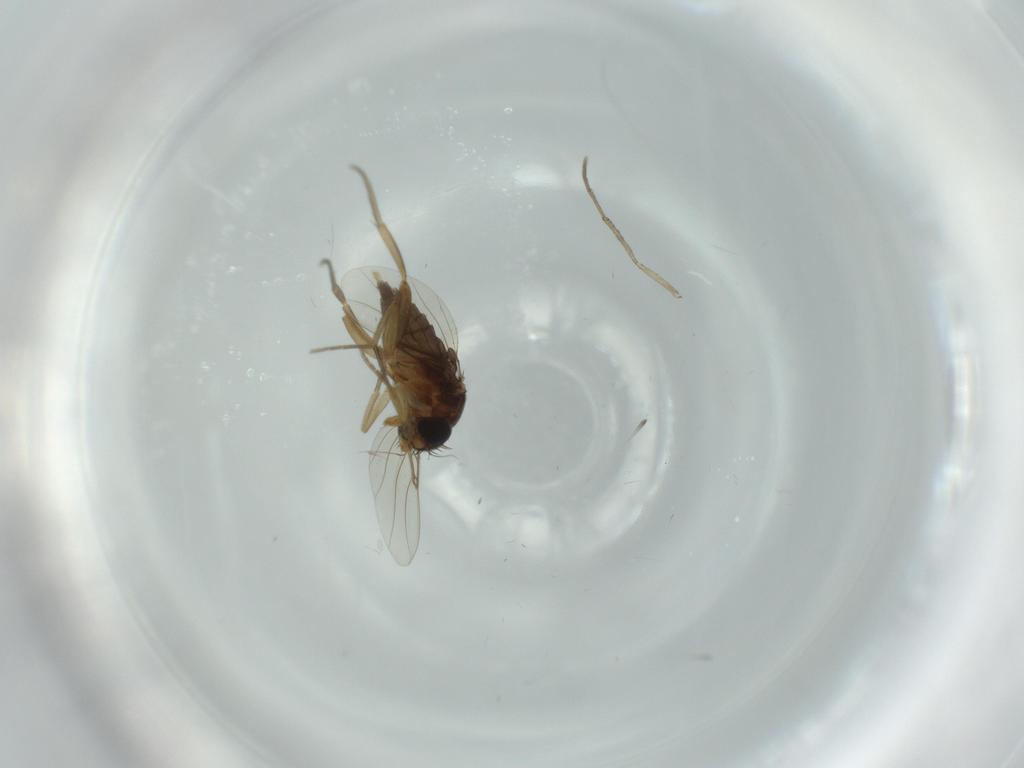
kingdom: Animalia
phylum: Arthropoda
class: Insecta
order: Diptera
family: Phoridae
